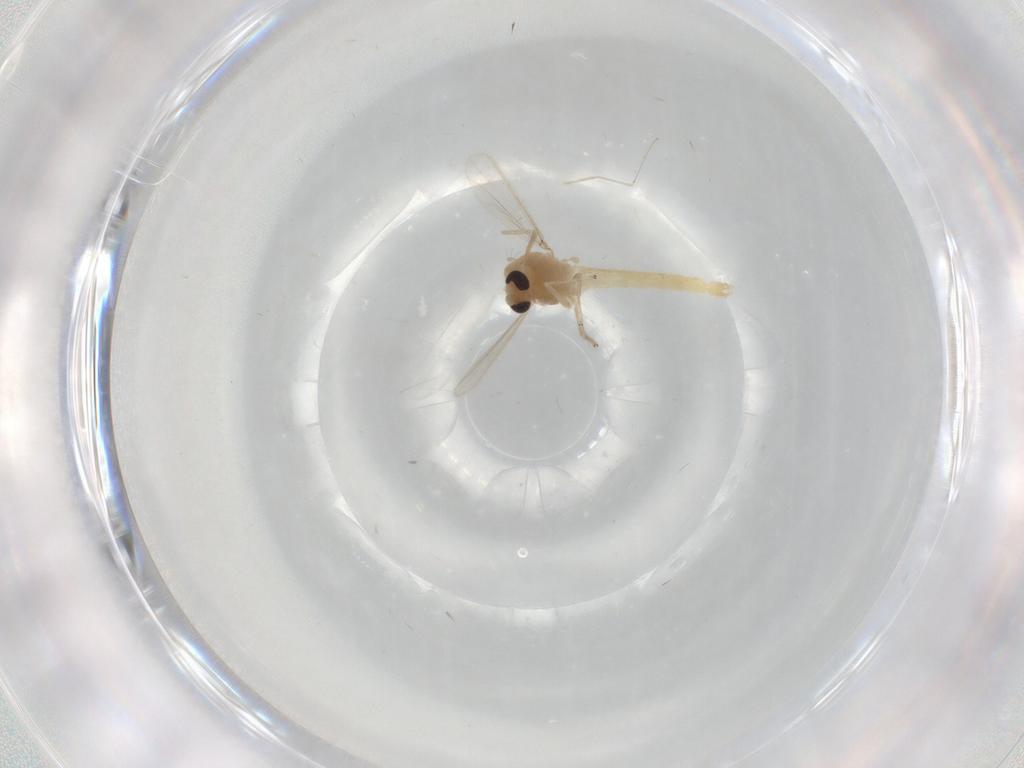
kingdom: Animalia
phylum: Arthropoda
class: Insecta
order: Diptera
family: Chironomidae
